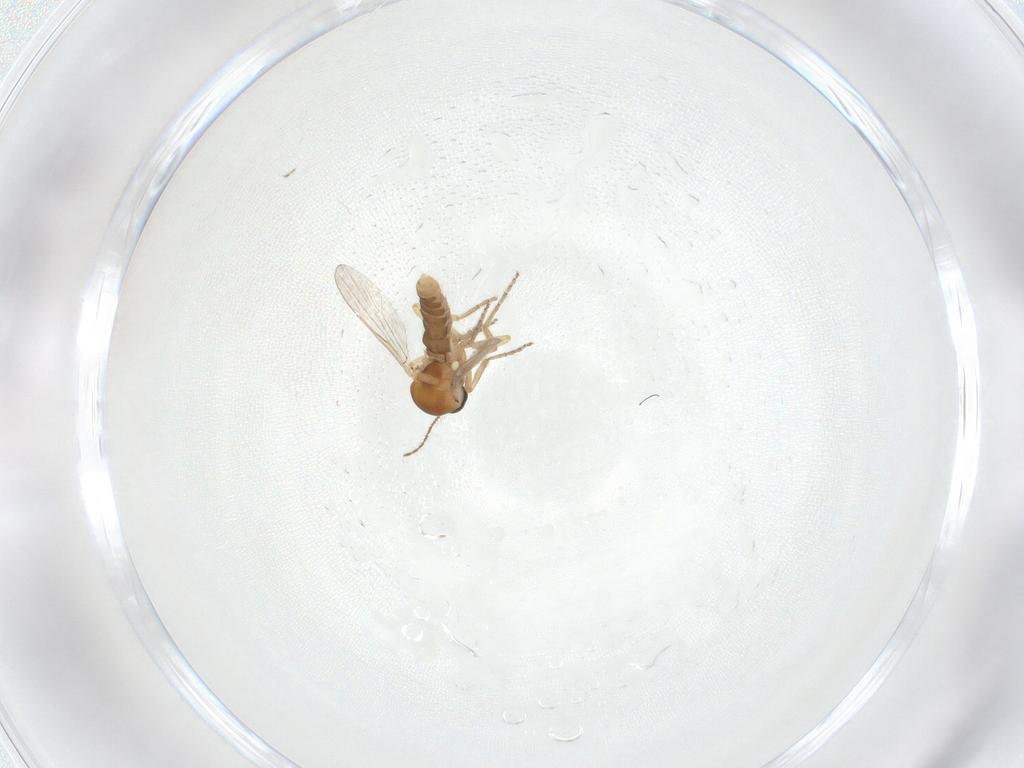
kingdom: Animalia
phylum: Arthropoda
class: Insecta
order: Diptera
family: Ceratopogonidae
